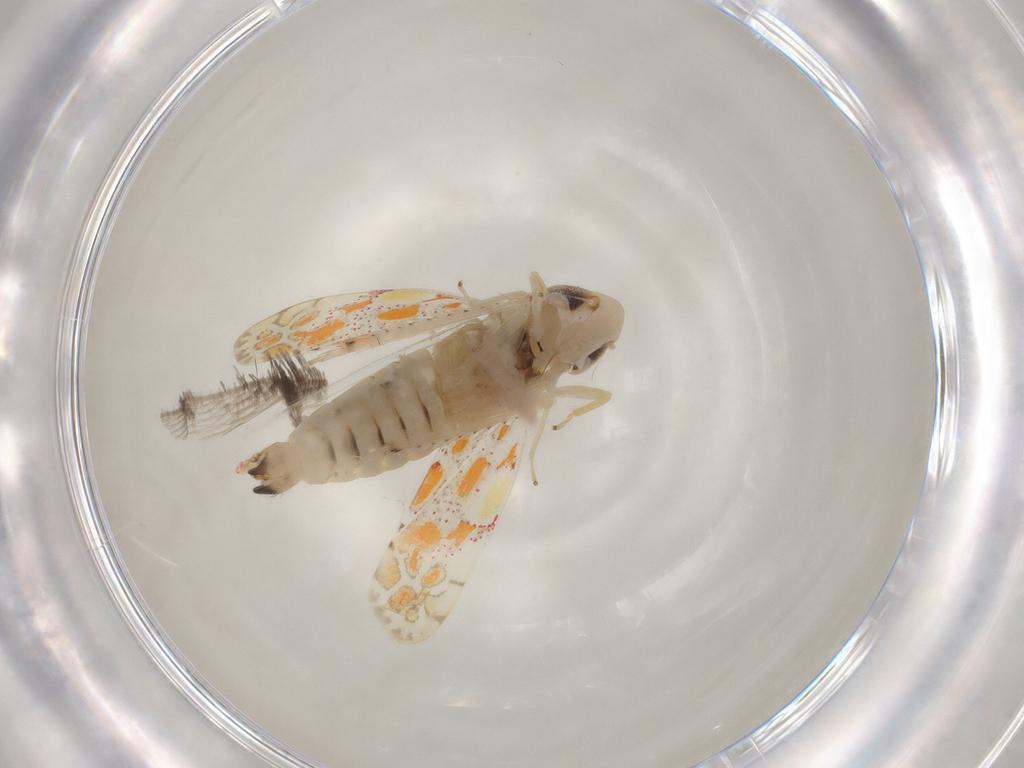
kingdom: Animalia
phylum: Arthropoda
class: Insecta
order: Hemiptera
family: Cicadellidae
